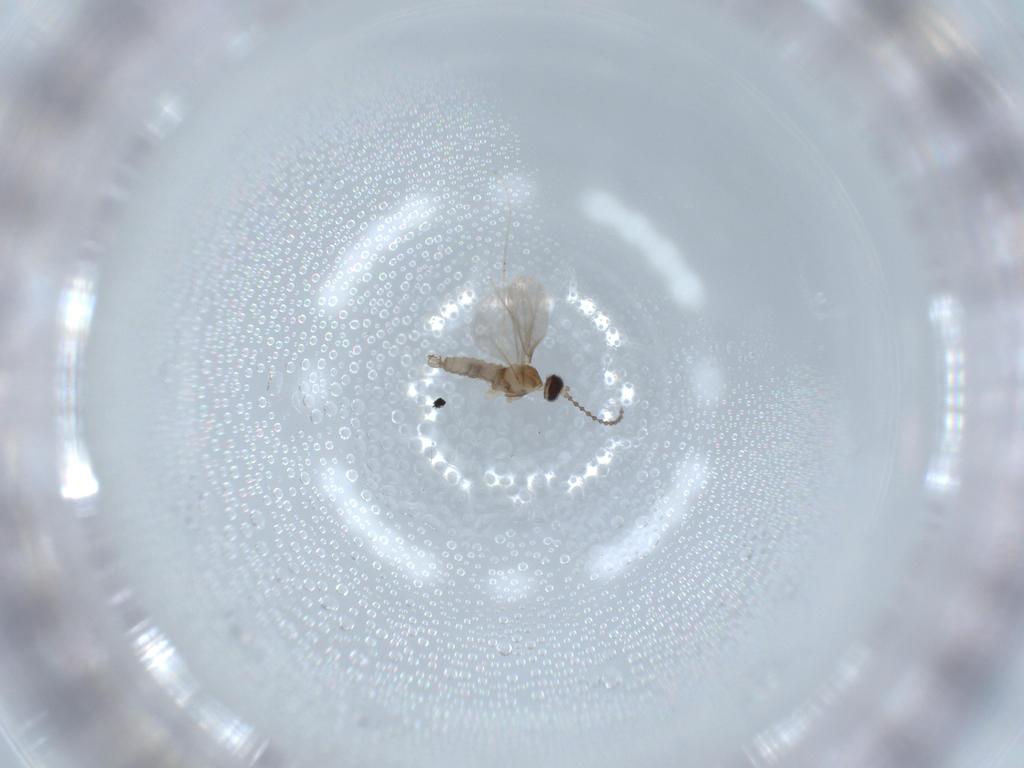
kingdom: Animalia
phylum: Arthropoda
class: Insecta
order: Diptera
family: Cecidomyiidae
